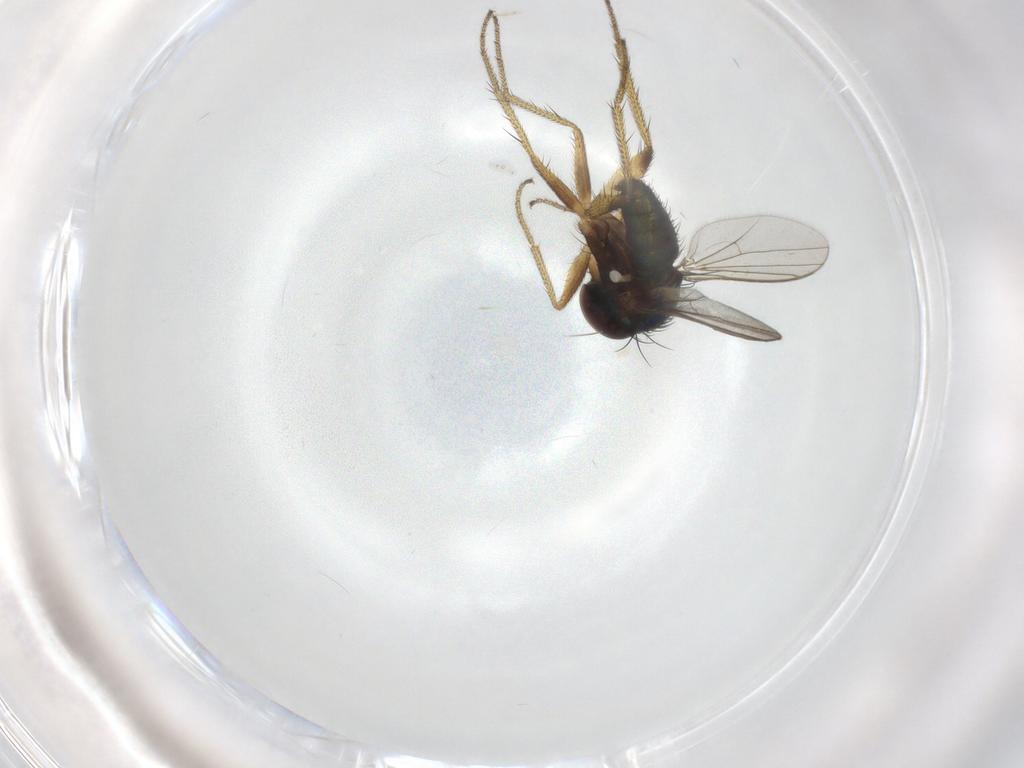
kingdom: Animalia
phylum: Arthropoda
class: Insecta
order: Diptera
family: Dolichopodidae
